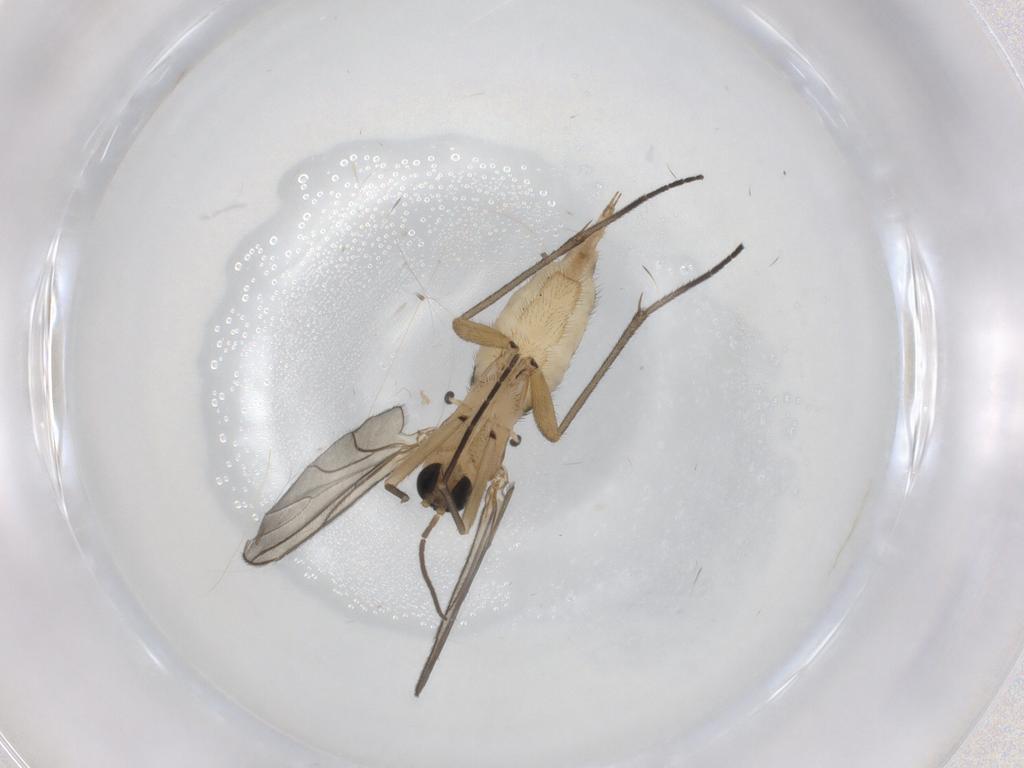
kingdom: Animalia
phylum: Arthropoda
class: Insecta
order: Diptera
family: Sciaridae
